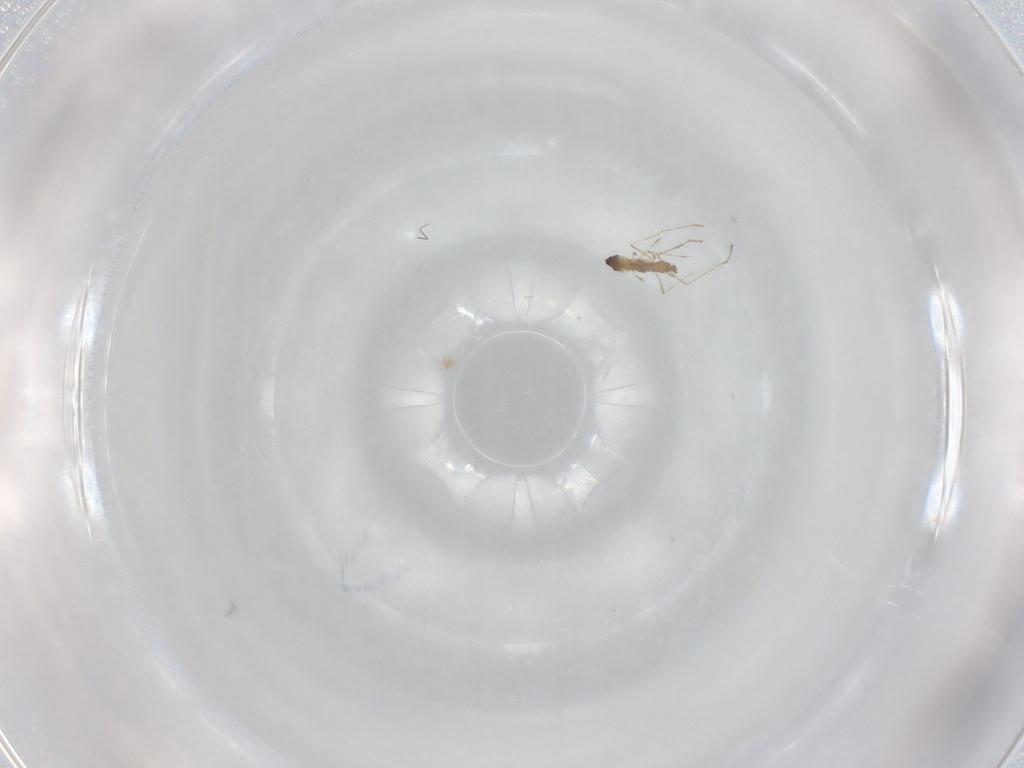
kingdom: Animalia
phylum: Arthropoda
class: Insecta
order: Diptera
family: Cecidomyiidae
